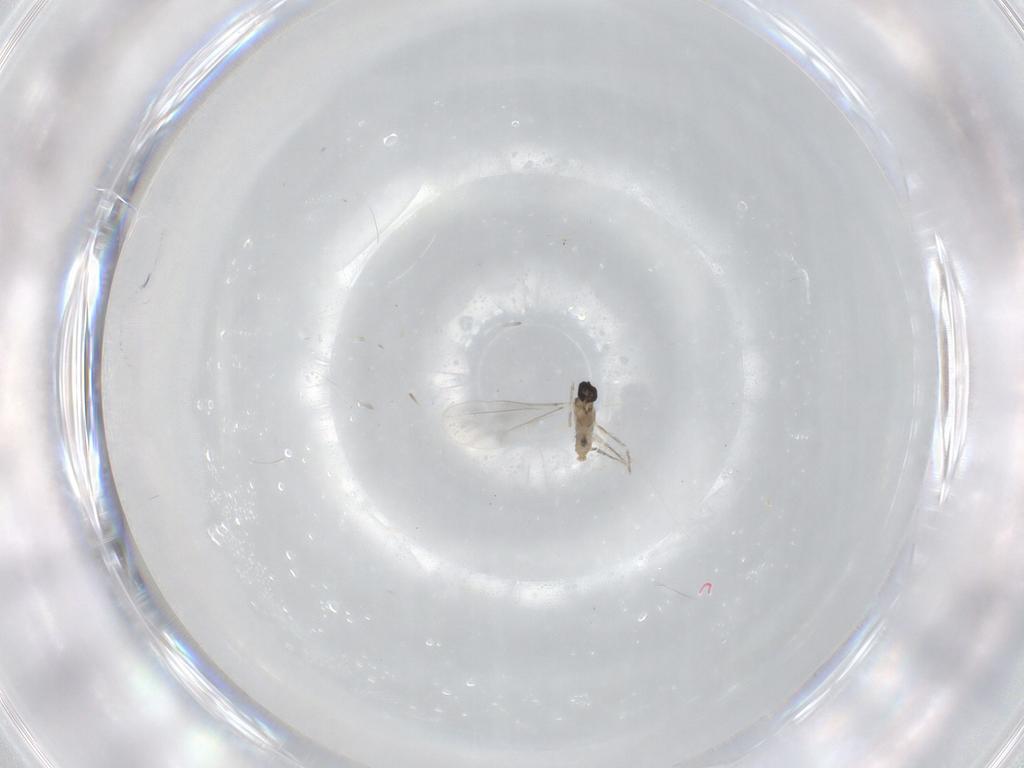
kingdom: Animalia
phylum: Arthropoda
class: Insecta
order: Diptera
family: Cecidomyiidae
